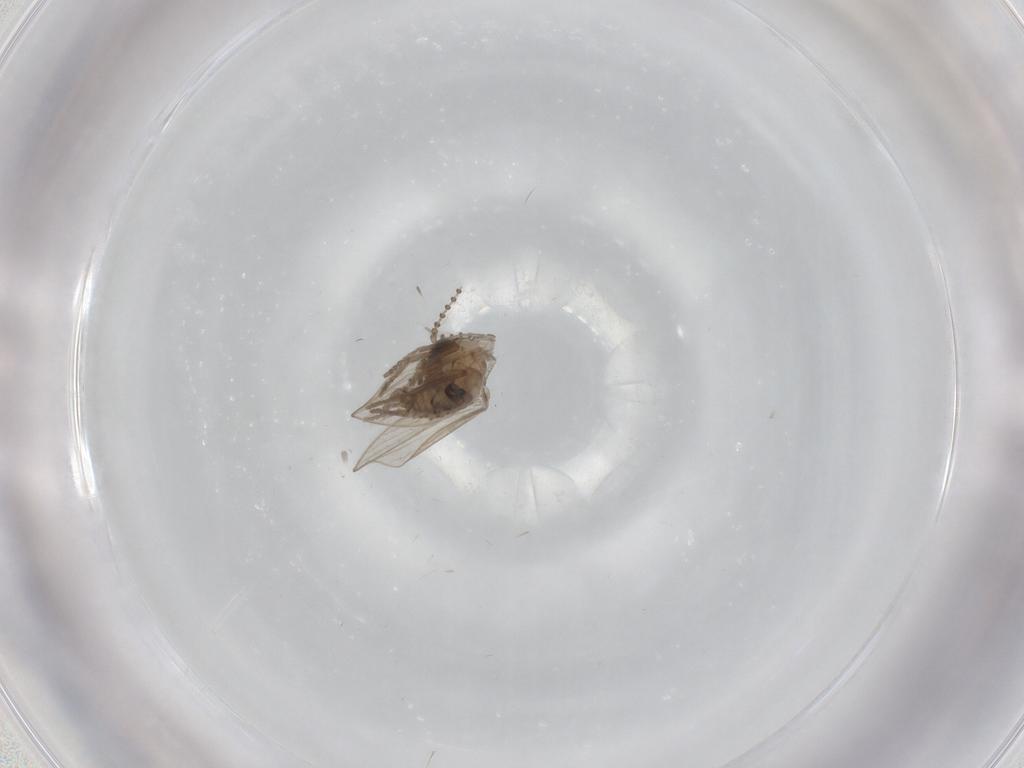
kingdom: Animalia
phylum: Arthropoda
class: Insecta
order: Diptera
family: Psychodidae
